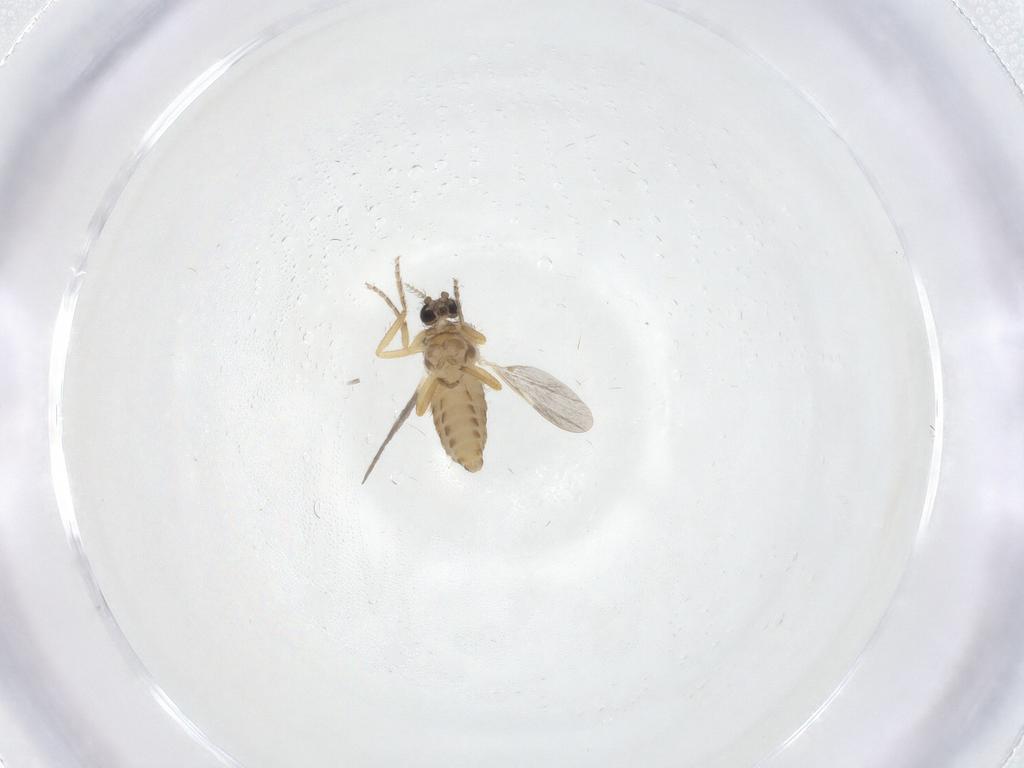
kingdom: Animalia
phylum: Arthropoda
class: Insecta
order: Diptera
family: Ceratopogonidae
